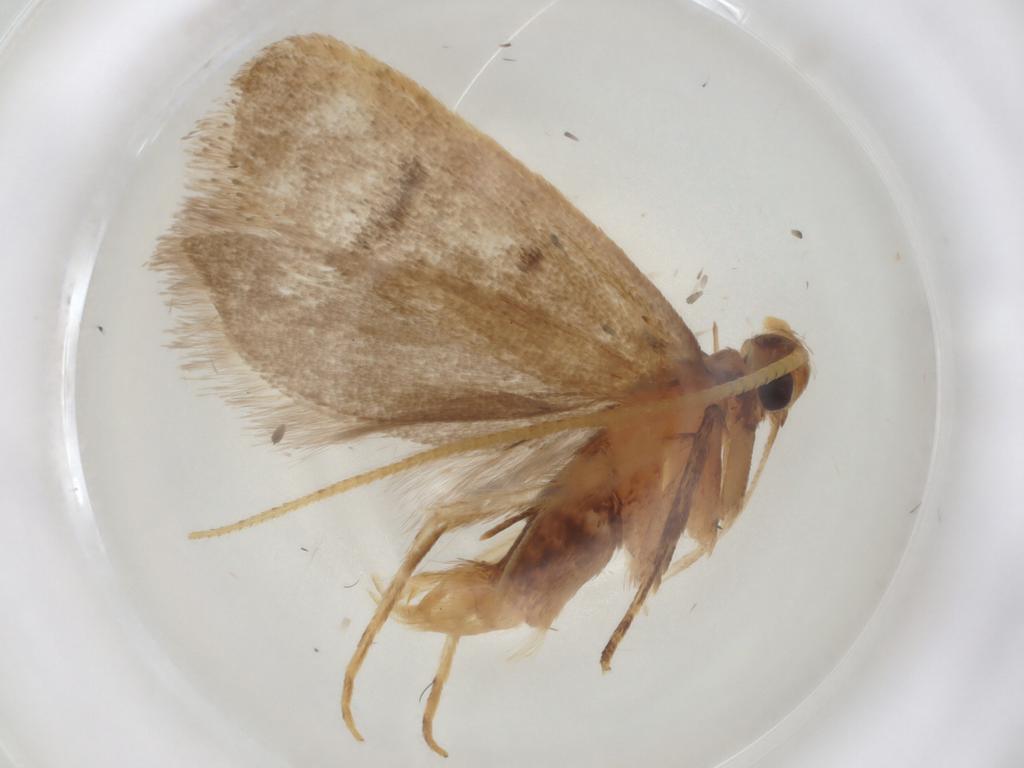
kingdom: Animalia
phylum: Arthropoda
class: Insecta
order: Lepidoptera
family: Lecithoceridae
